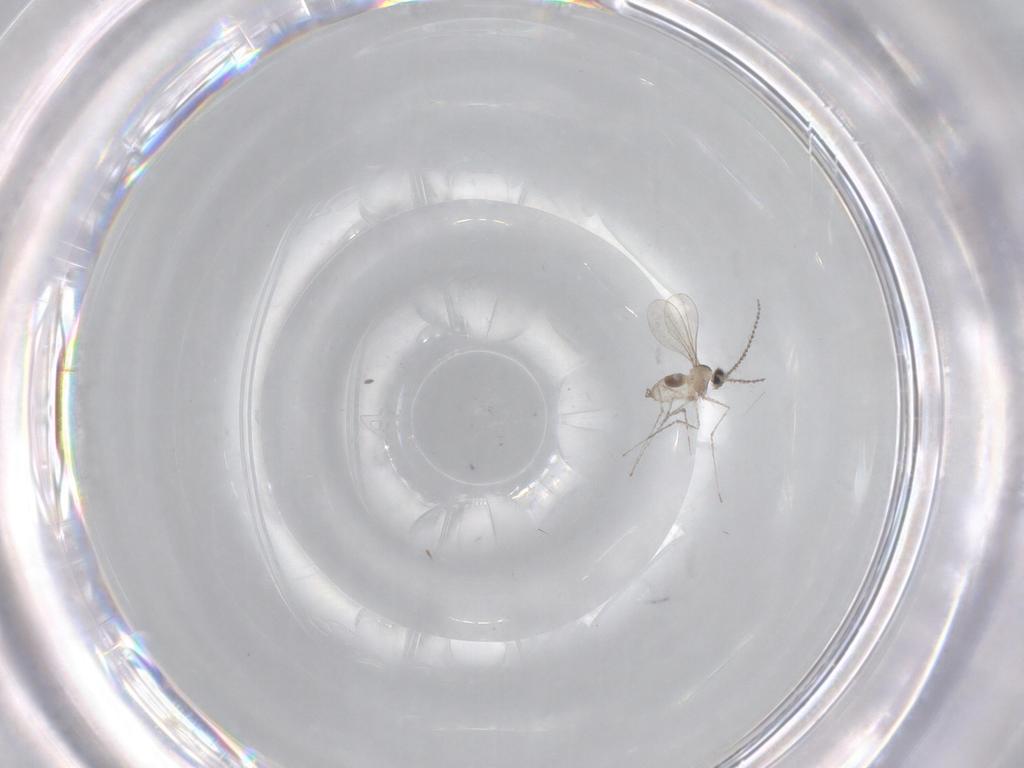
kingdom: Animalia
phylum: Arthropoda
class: Insecta
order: Diptera
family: Cecidomyiidae
